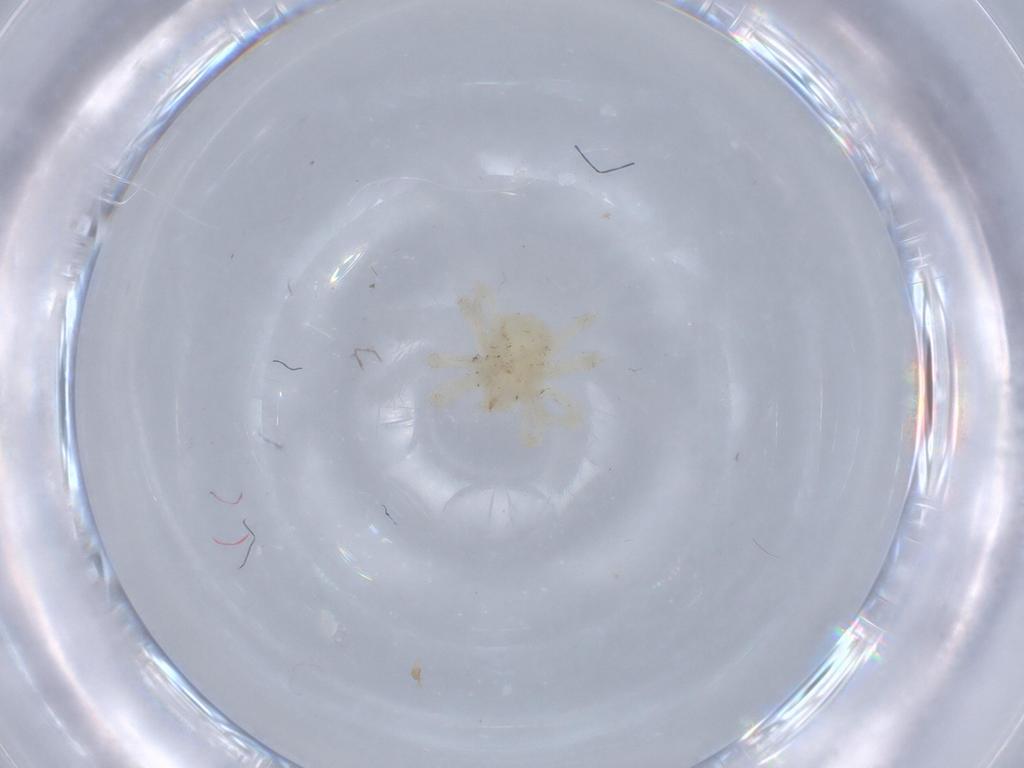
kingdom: Animalia
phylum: Arthropoda
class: Arachnida
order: Trombidiformes
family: Anystidae
